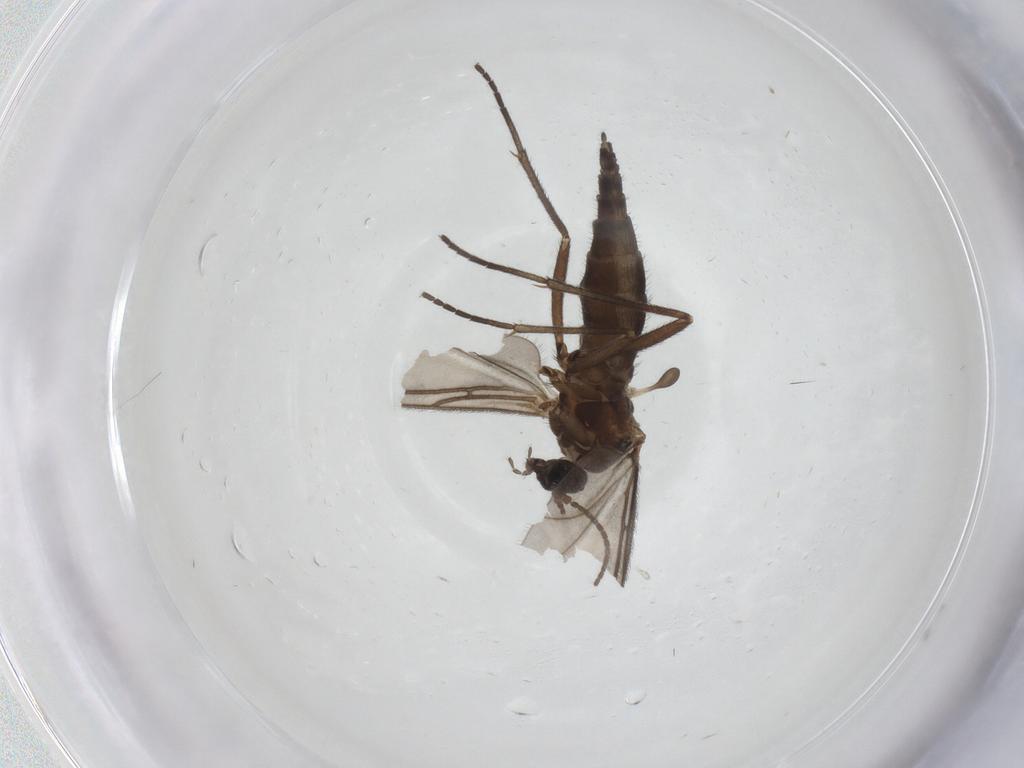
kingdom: Animalia
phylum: Arthropoda
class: Insecta
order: Diptera
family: Sciaridae
